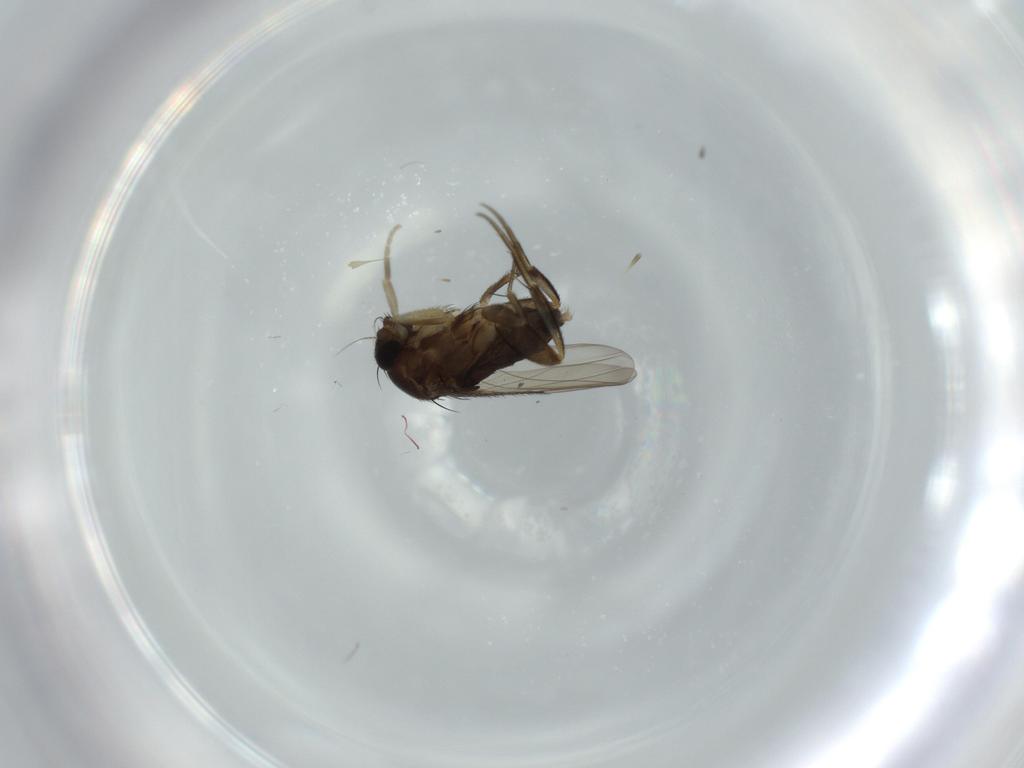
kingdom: Animalia
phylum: Arthropoda
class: Insecta
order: Diptera
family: Phoridae
